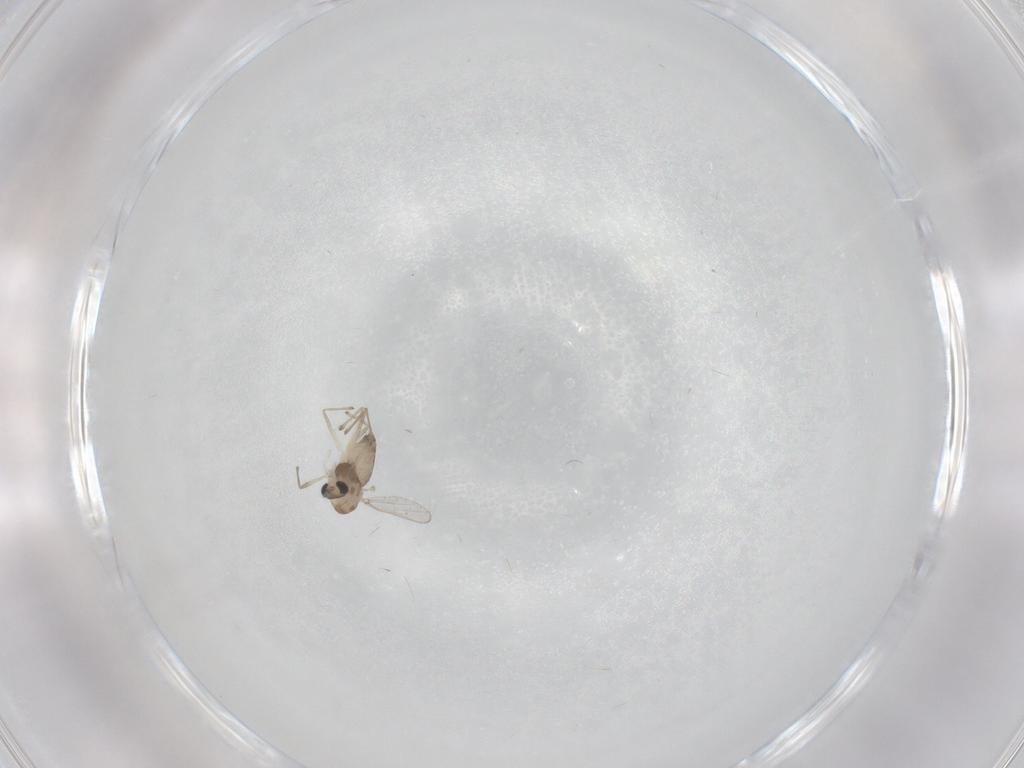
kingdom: Animalia
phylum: Arthropoda
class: Insecta
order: Diptera
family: Chironomidae
